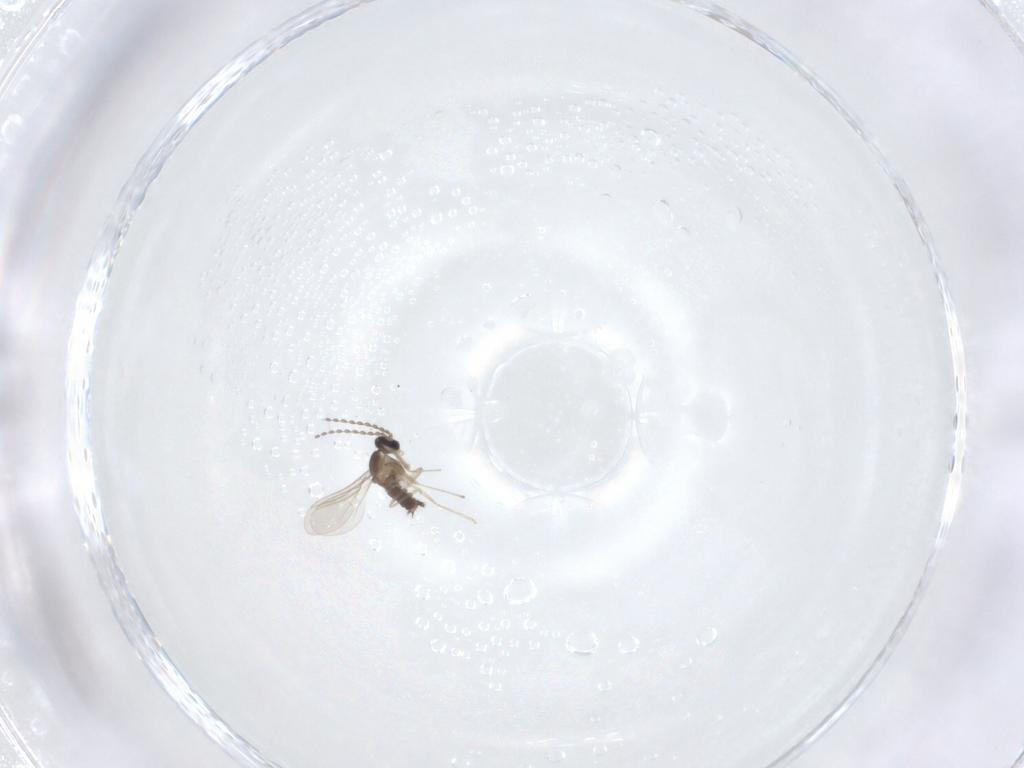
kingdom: Animalia
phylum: Arthropoda
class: Insecta
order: Diptera
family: Cecidomyiidae
